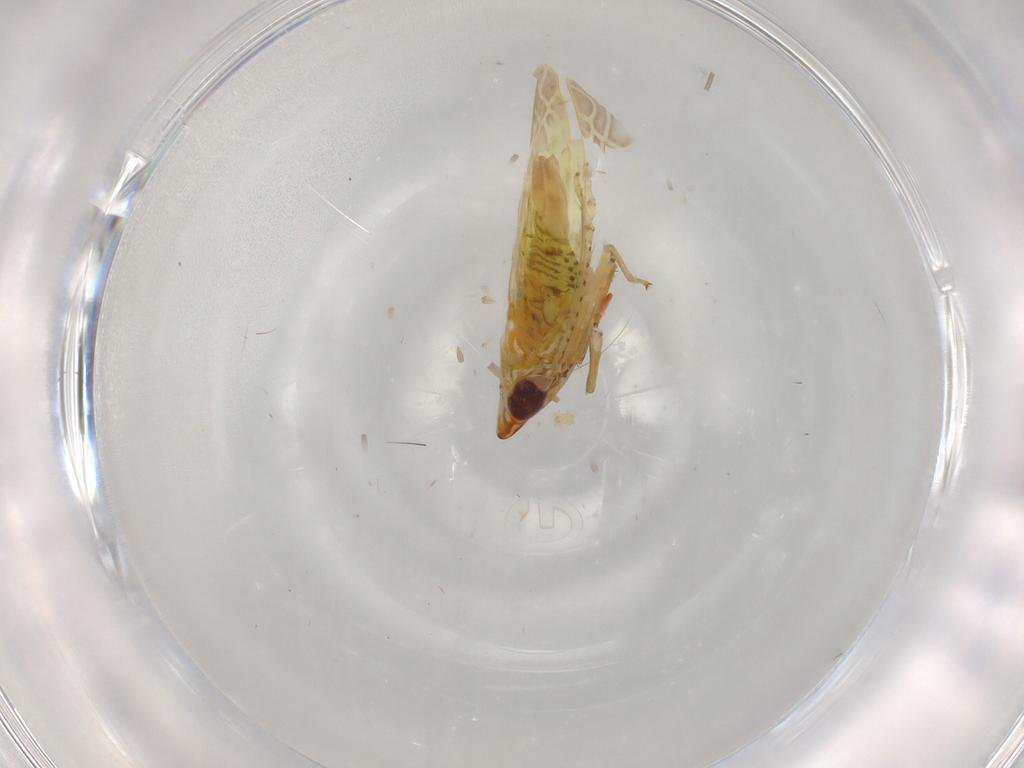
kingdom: Animalia
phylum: Arthropoda
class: Insecta
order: Hemiptera
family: Cicadellidae
